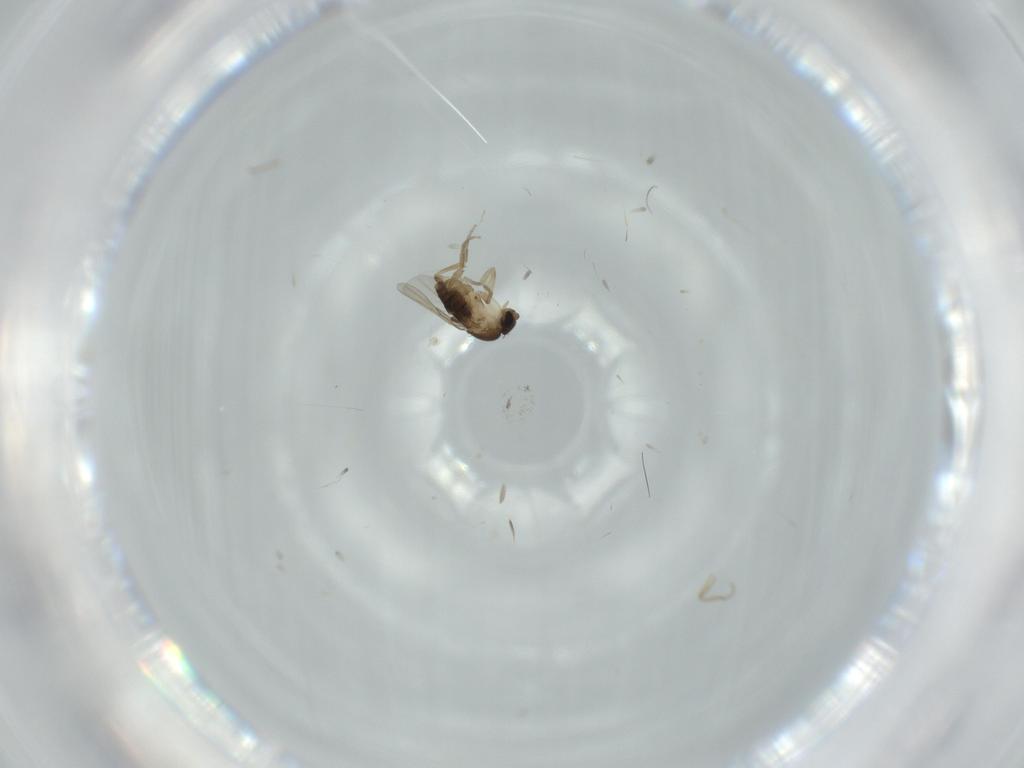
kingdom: Animalia
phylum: Arthropoda
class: Insecta
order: Diptera
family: Phoridae
